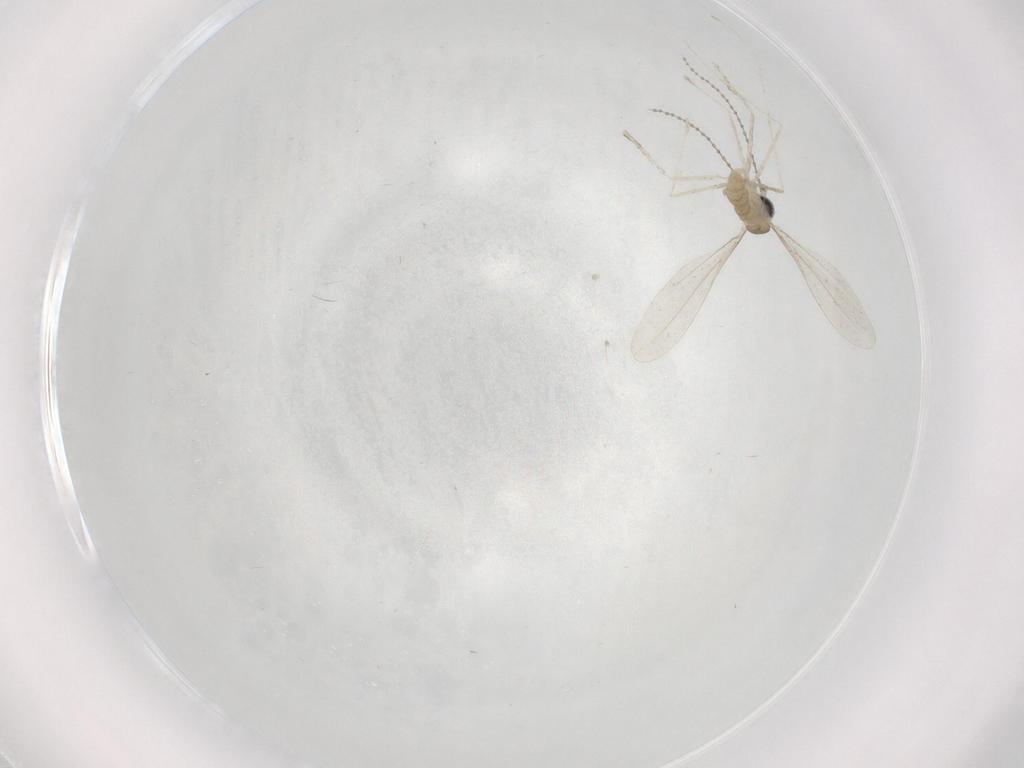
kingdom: Animalia
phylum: Arthropoda
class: Insecta
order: Diptera
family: Cecidomyiidae
